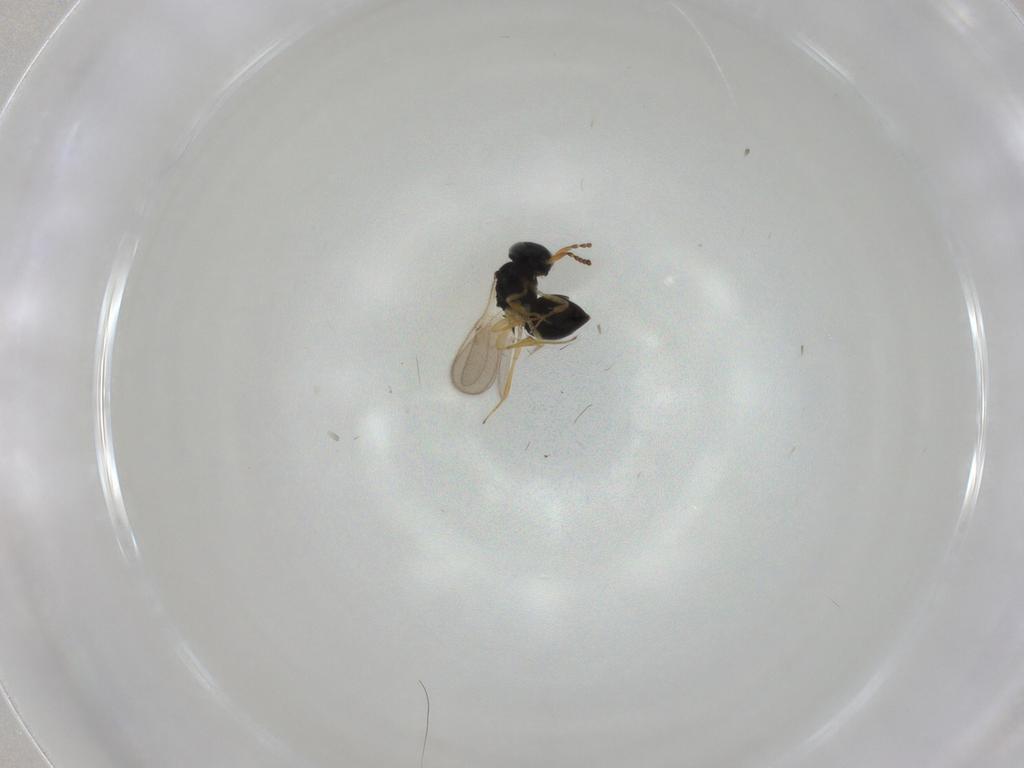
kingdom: Animalia
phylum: Arthropoda
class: Insecta
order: Hymenoptera
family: Scelionidae
